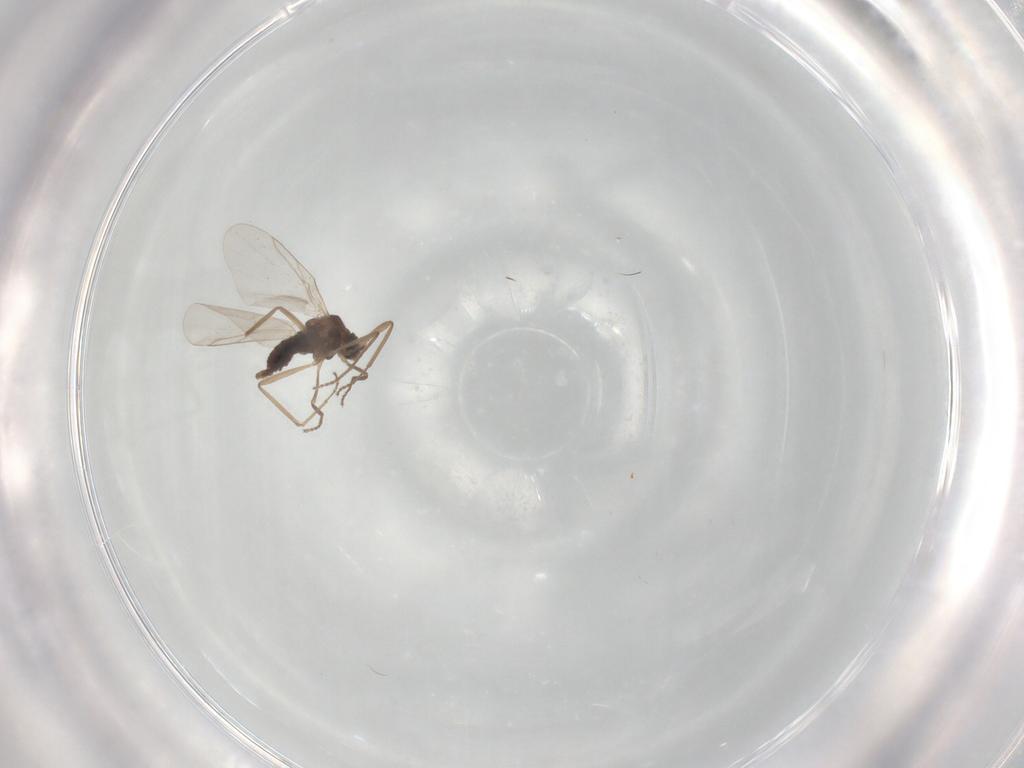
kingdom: Animalia
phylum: Arthropoda
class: Insecta
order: Diptera
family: Cecidomyiidae
